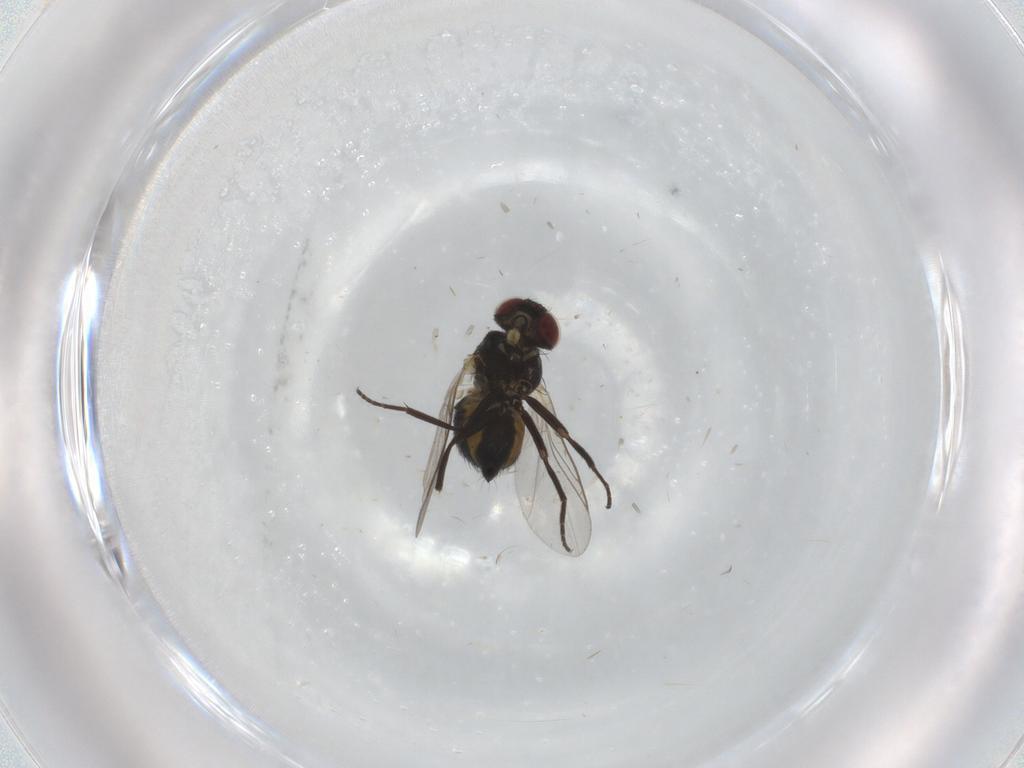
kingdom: Animalia
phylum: Arthropoda
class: Insecta
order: Diptera
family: Agromyzidae
